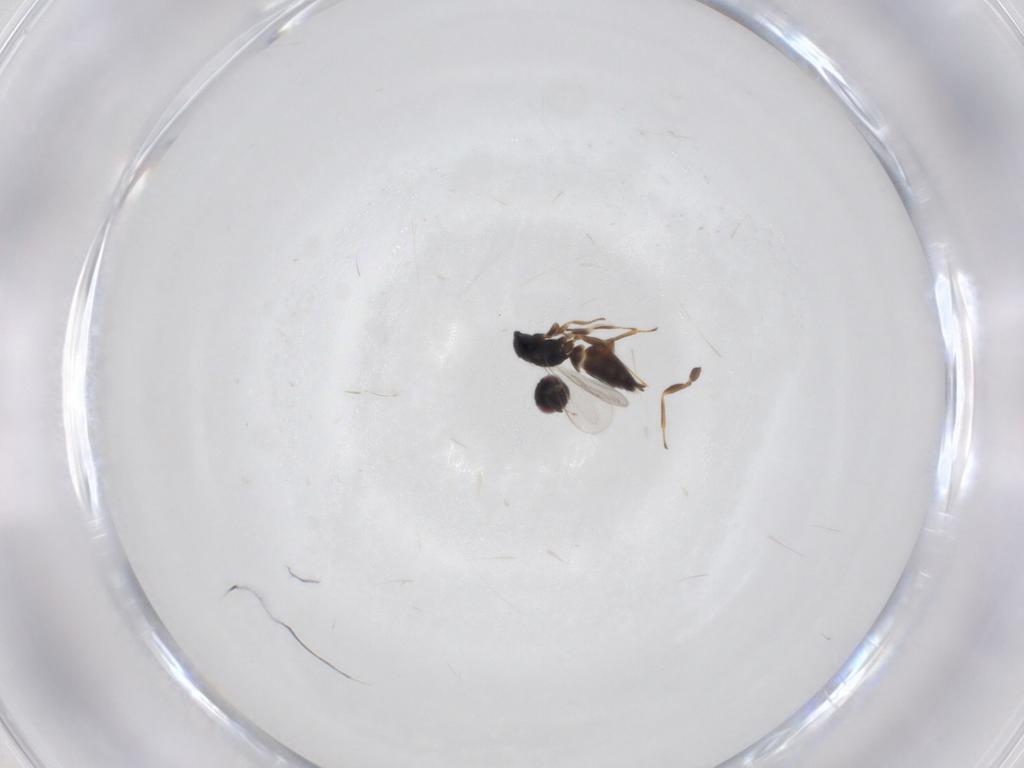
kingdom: Animalia
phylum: Arthropoda
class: Insecta
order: Hymenoptera
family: Eulophidae
